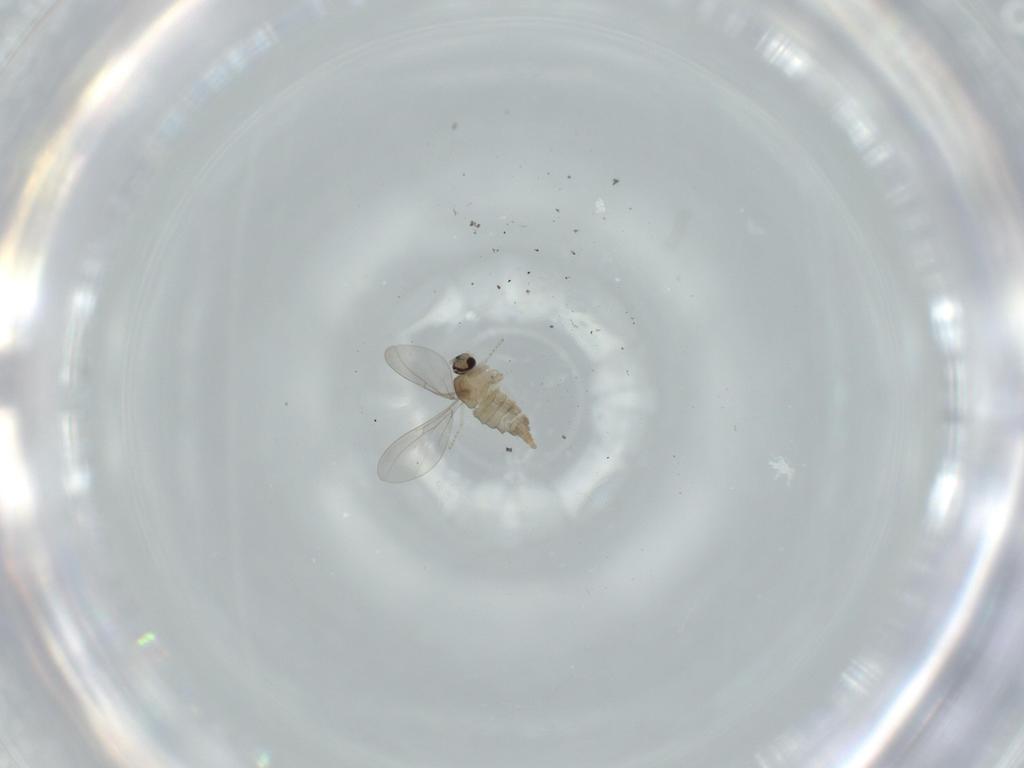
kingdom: Animalia
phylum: Arthropoda
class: Insecta
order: Diptera
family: Cecidomyiidae
